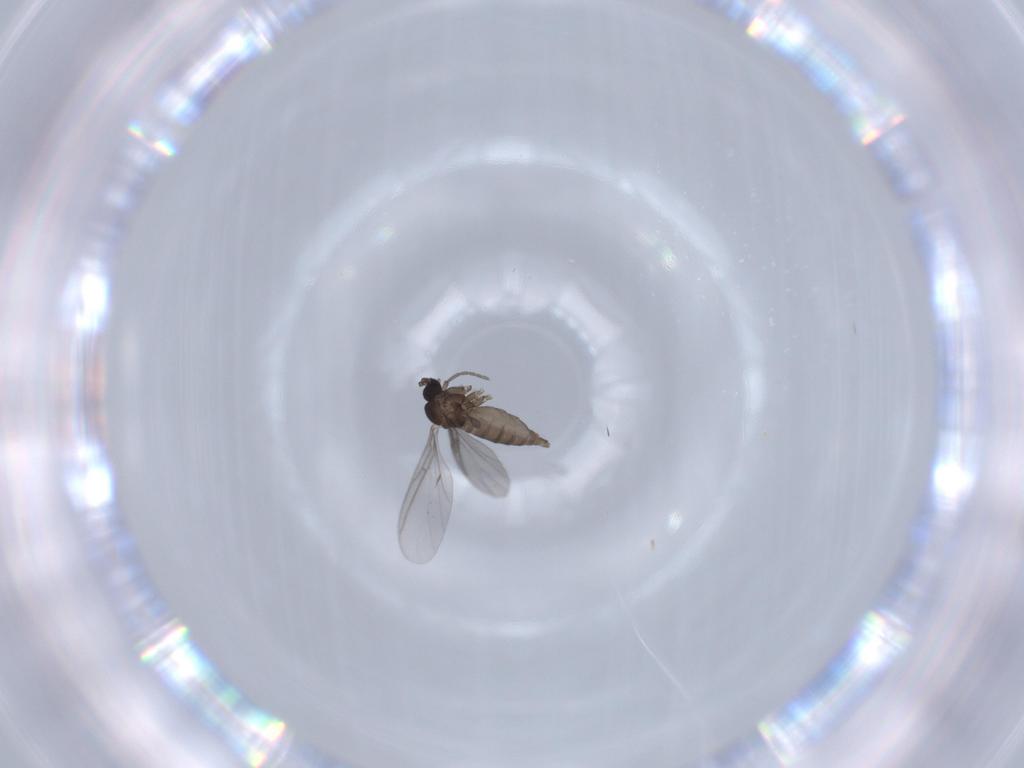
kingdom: Animalia
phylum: Arthropoda
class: Insecta
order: Diptera
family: Sciaridae
